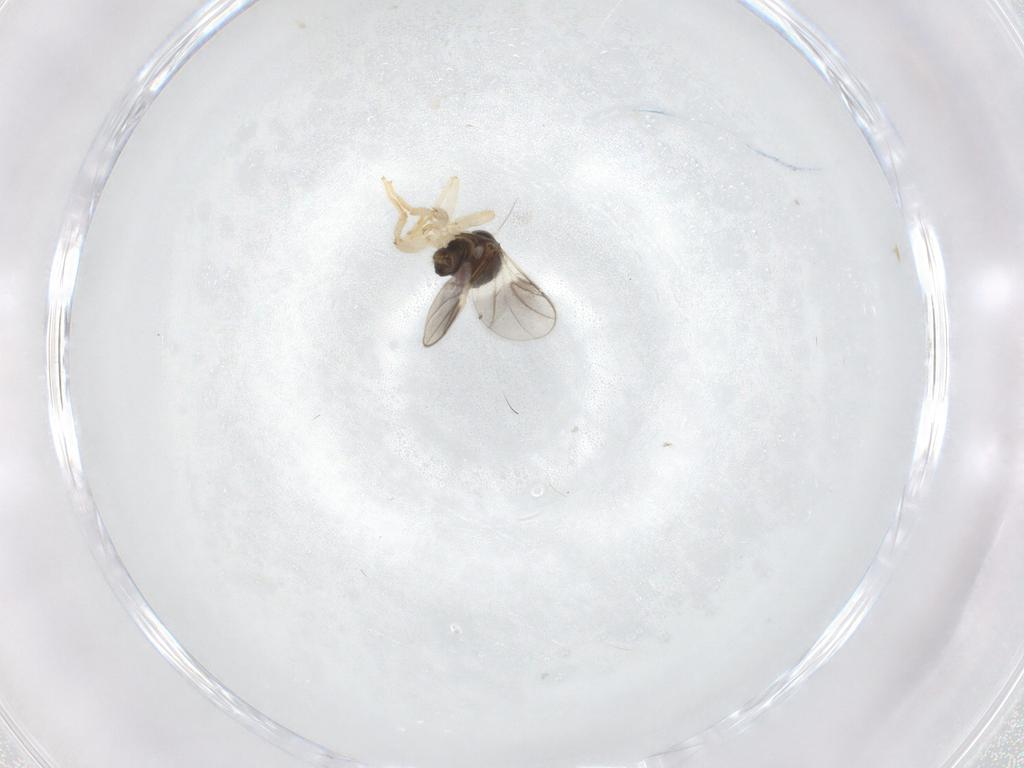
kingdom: Animalia
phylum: Arthropoda
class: Insecta
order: Diptera
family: Hybotidae
